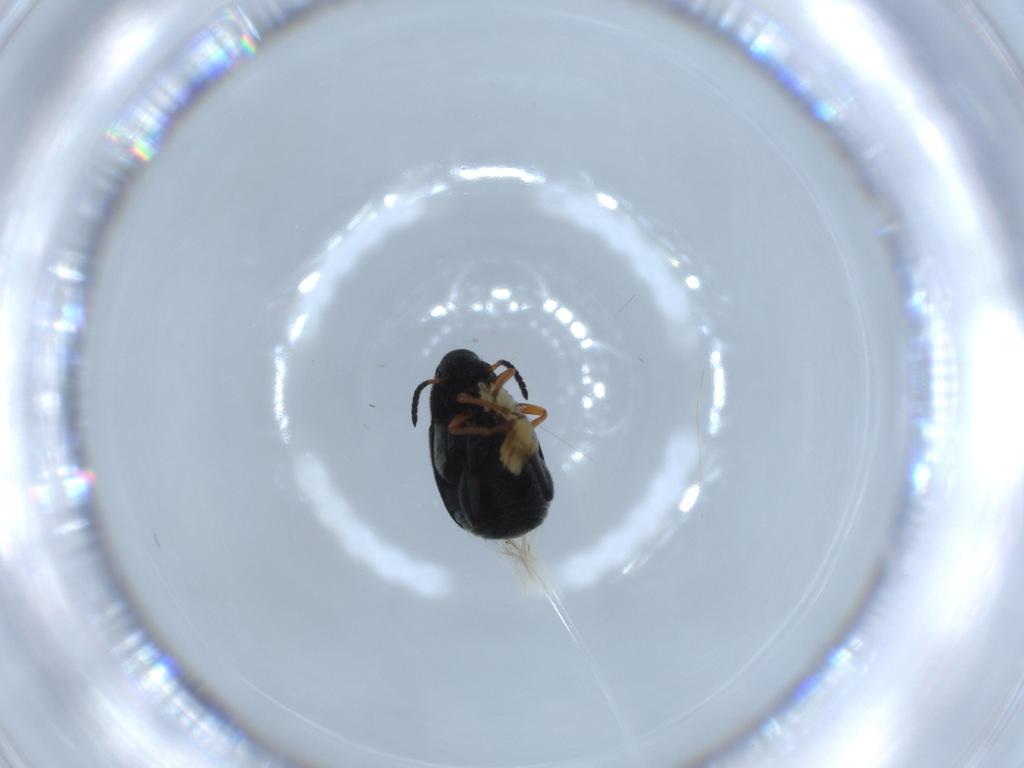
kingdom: Animalia
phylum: Arthropoda
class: Insecta
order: Coleoptera
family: Chrysomelidae
